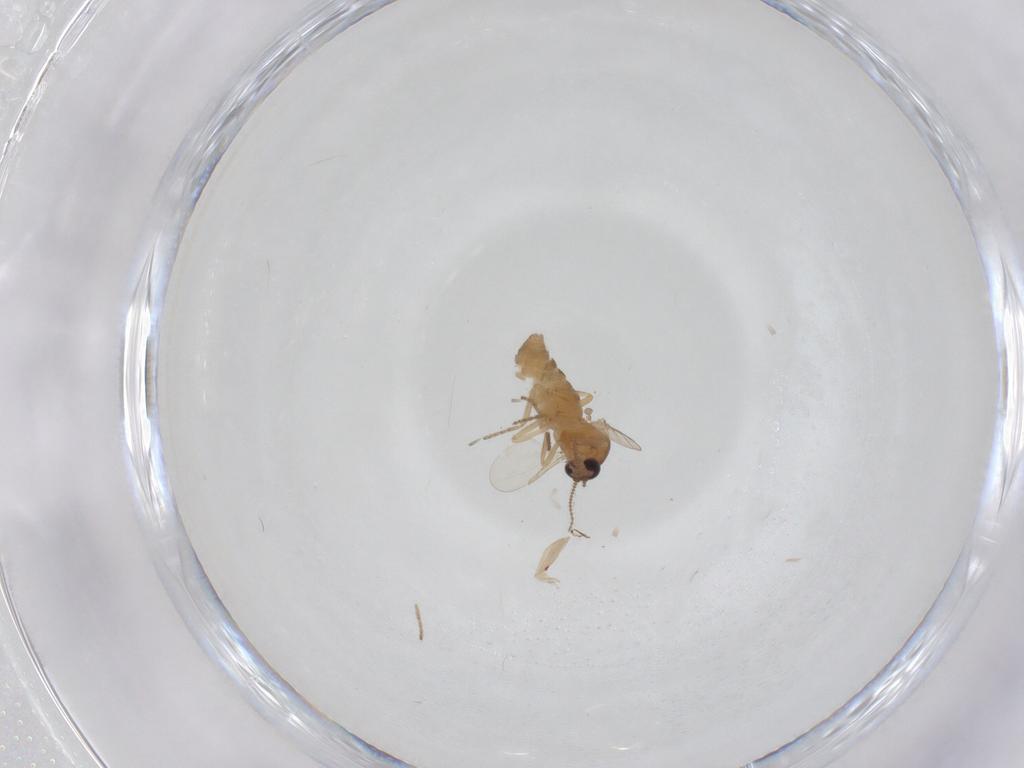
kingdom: Animalia
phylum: Arthropoda
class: Insecta
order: Diptera
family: Ceratopogonidae
